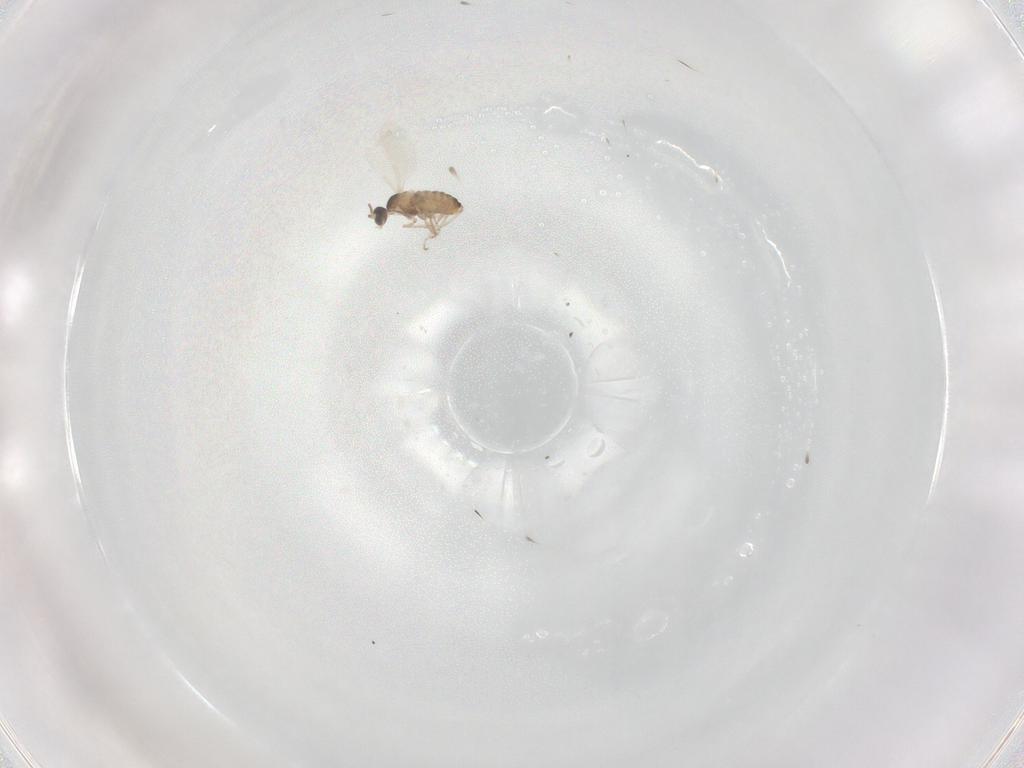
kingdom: Animalia
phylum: Arthropoda
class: Insecta
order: Diptera
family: Cecidomyiidae
